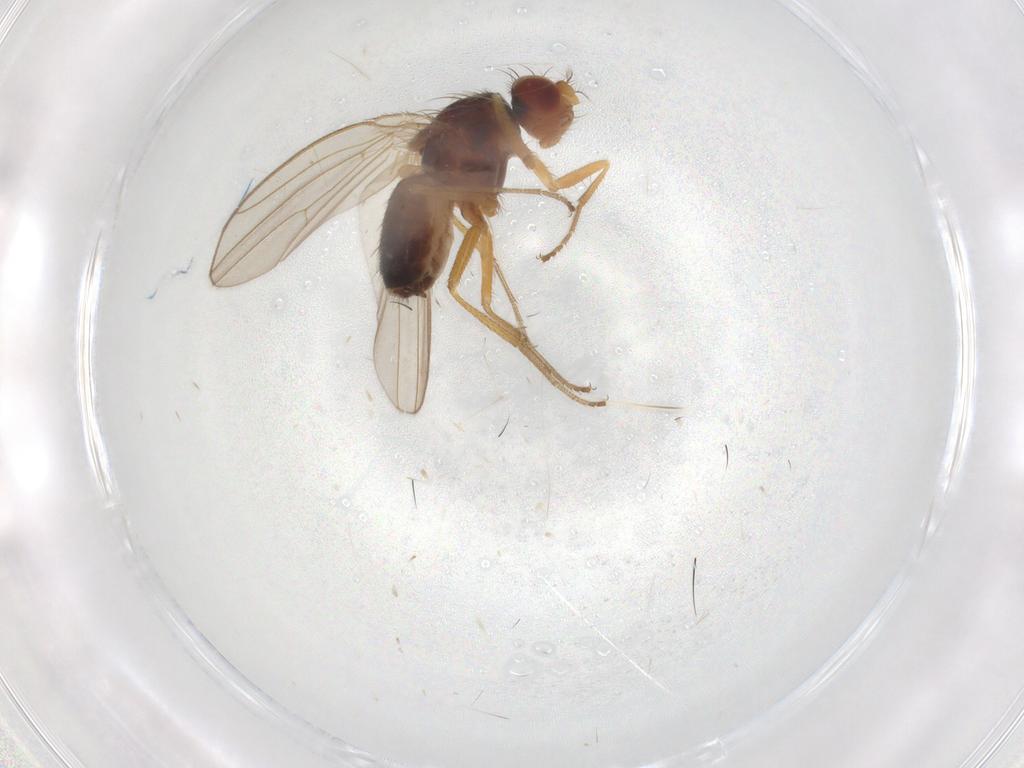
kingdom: Animalia
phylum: Arthropoda
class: Insecta
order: Diptera
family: Drosophilidae
